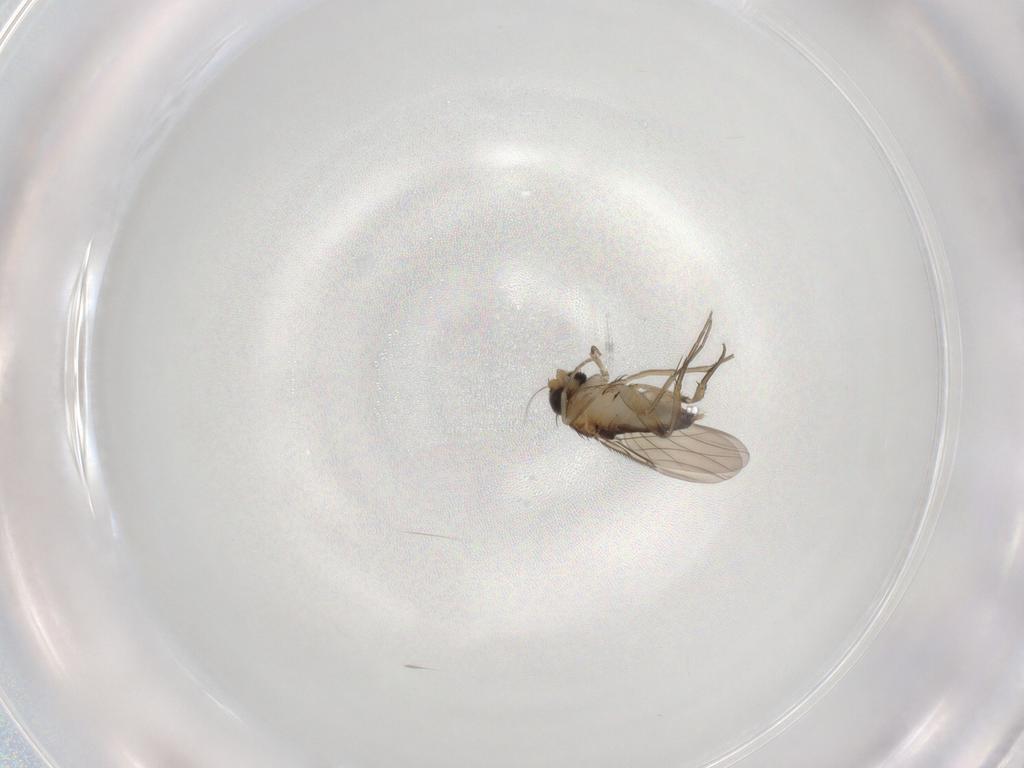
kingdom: Animalia
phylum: Arthropoda
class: Insecta
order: Diptera
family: Phoridae
